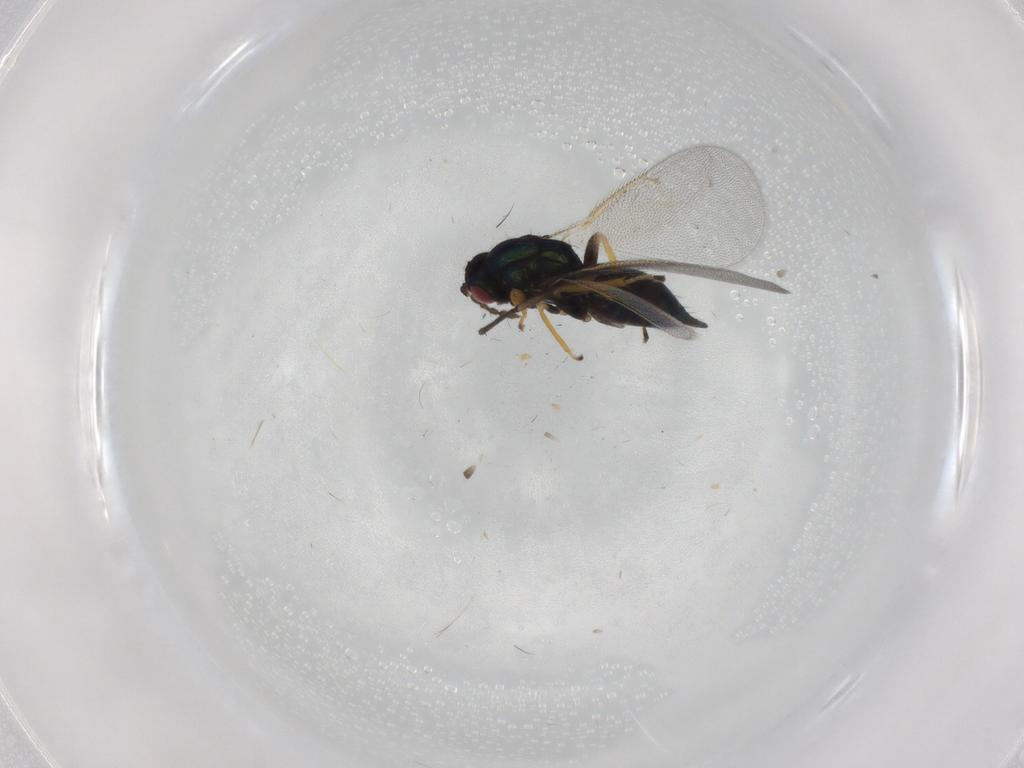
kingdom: Animalia
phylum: Arthropoda
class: Insecta
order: Hymenoptera
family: Eulophidae
